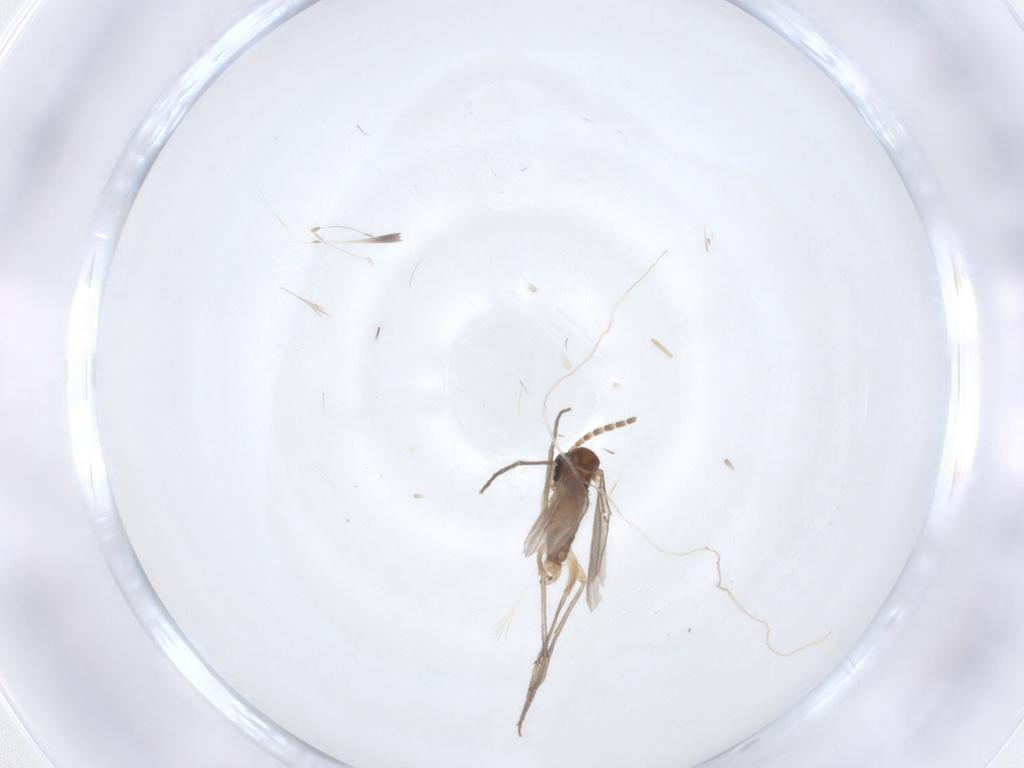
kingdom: Animalia
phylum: Arthropoda
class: Insecta
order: Diptera
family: Sciaridae
